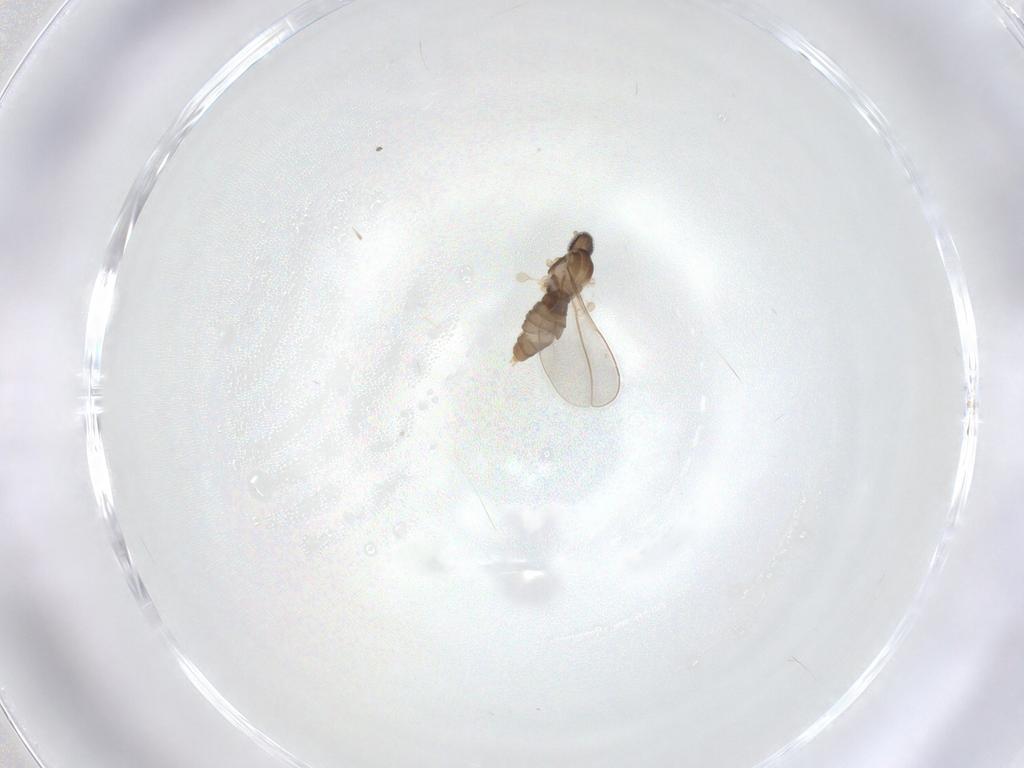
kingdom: Animalia
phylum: Arthropoda
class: Insecta
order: Diptera
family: Cecidomyiidae
